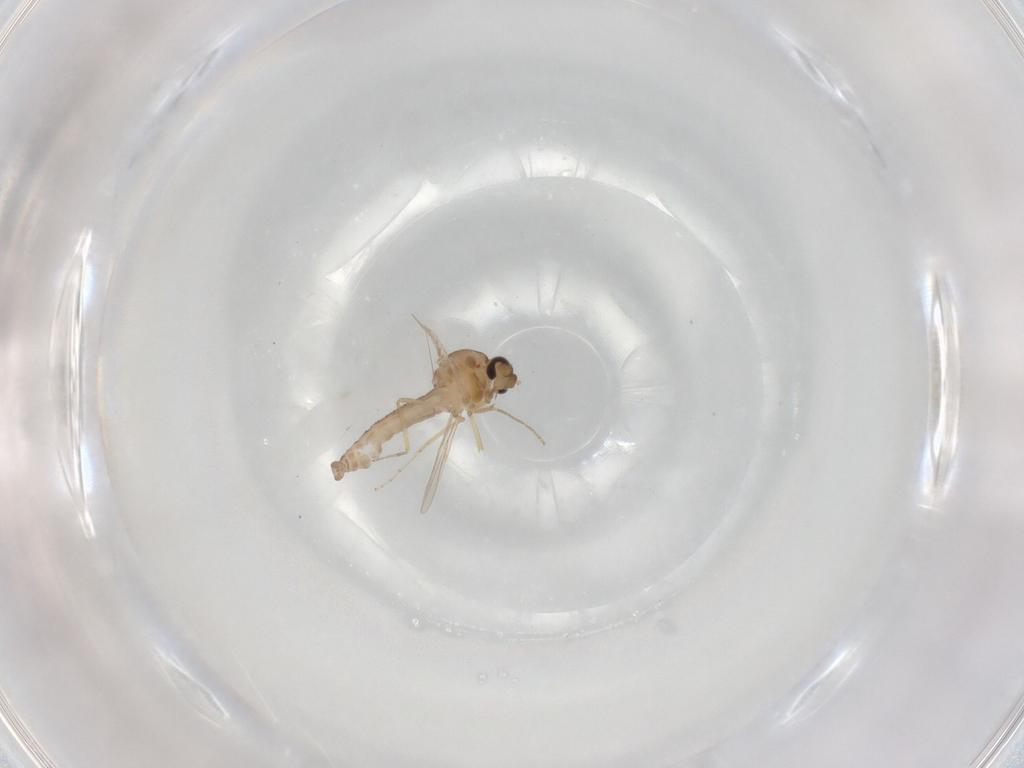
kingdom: Animalia
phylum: Arthropoda
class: Insecta
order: Diptera
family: Ceratopogonidae
